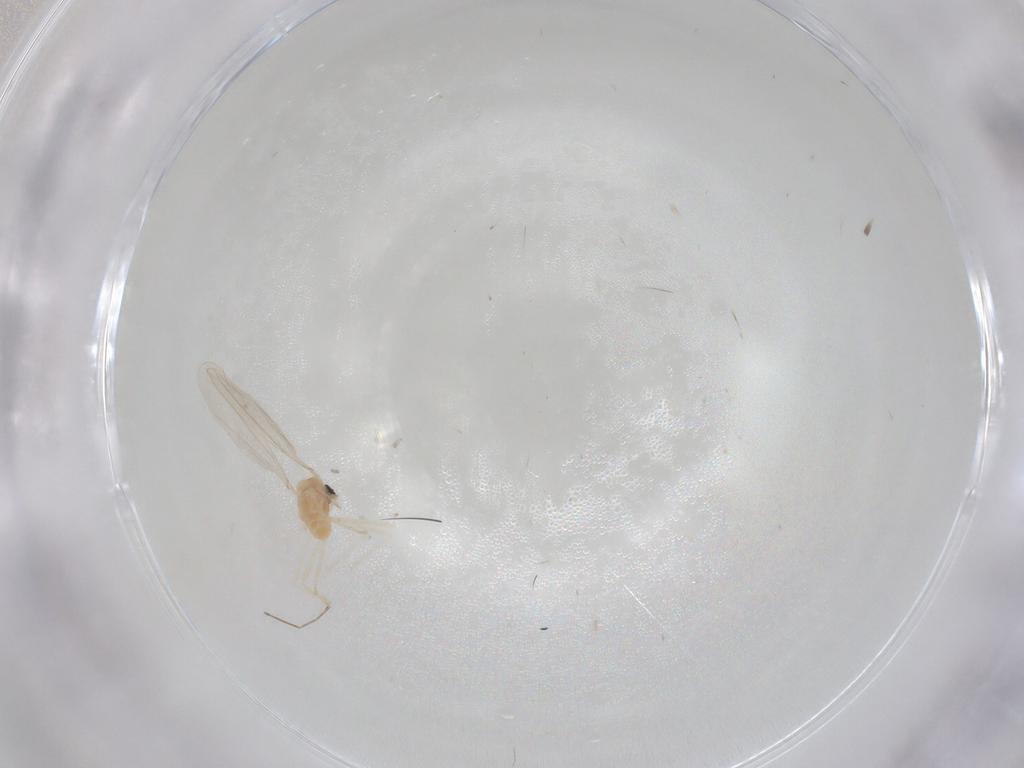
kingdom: Animalia
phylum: Arthropoda
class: Insecta
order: Diptera
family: Cecidomyiidae
